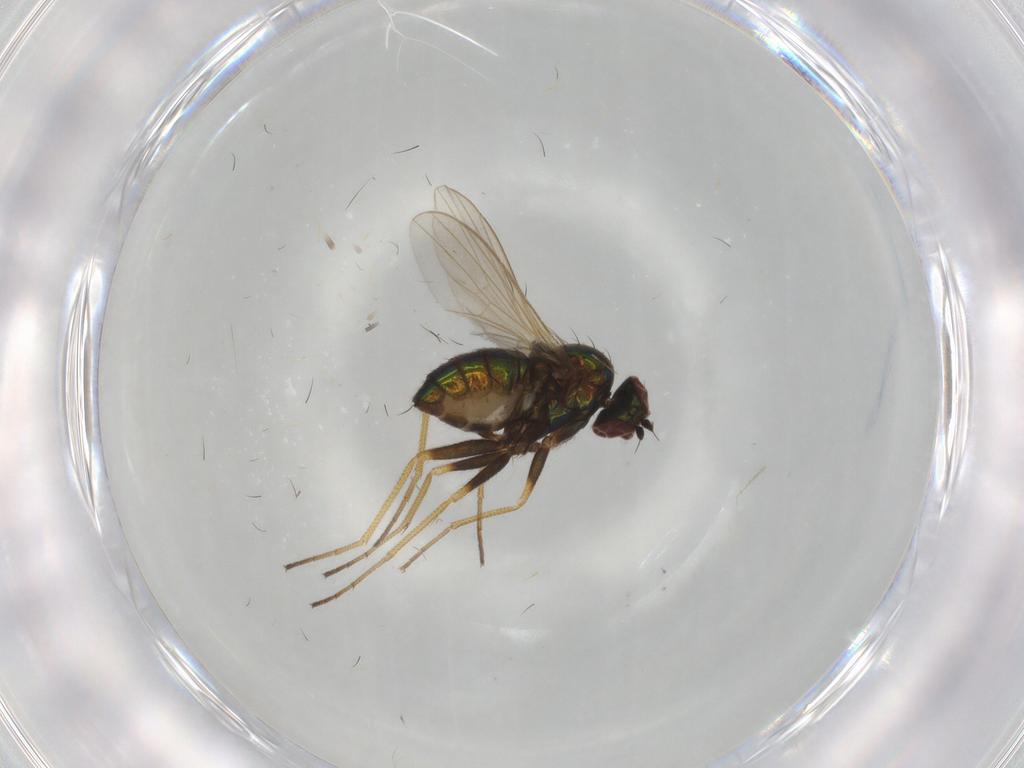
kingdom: Animalia
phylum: Arthropoda
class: Insecta
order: Diptera
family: Dolichopodidae
